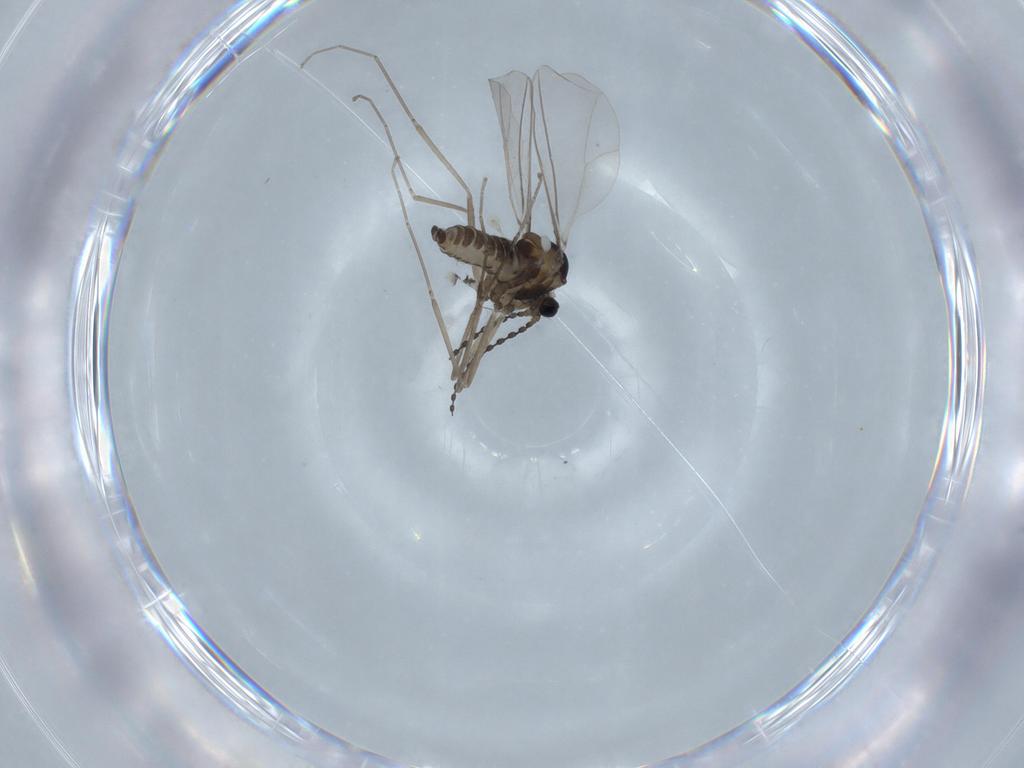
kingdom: Animalia
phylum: Arthropoda
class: Insecta
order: Diptera
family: Cecidomyiidae
